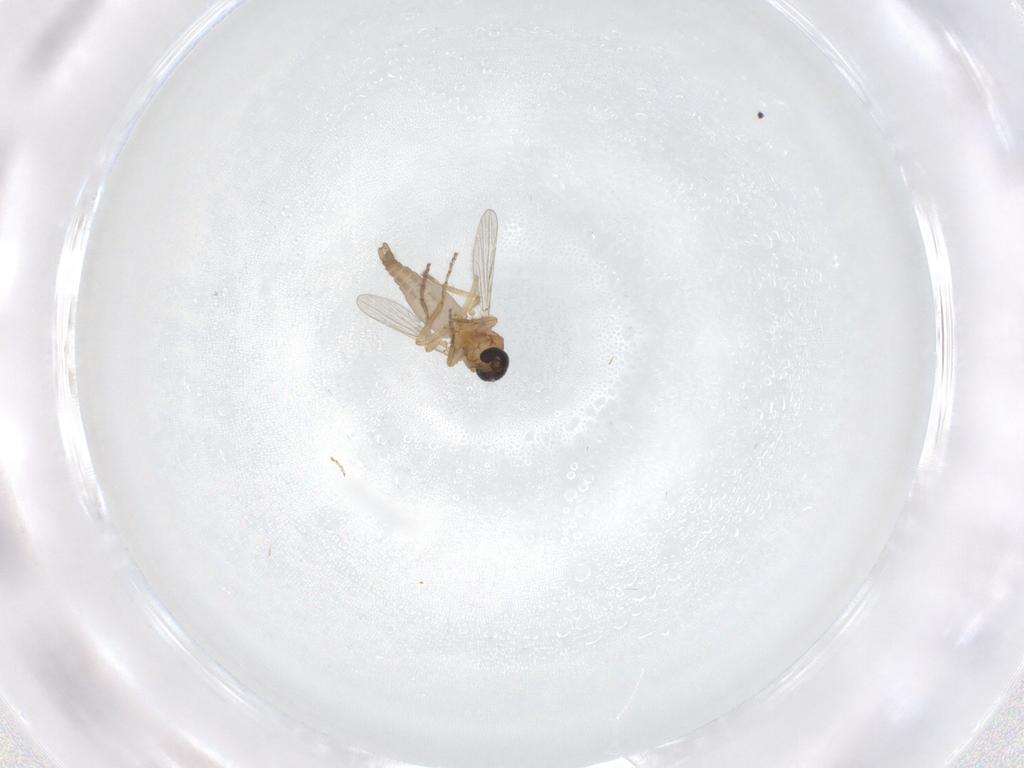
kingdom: Animalia
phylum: Arthropoda
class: Insecta
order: Diptera
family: Ceratopogonidae
